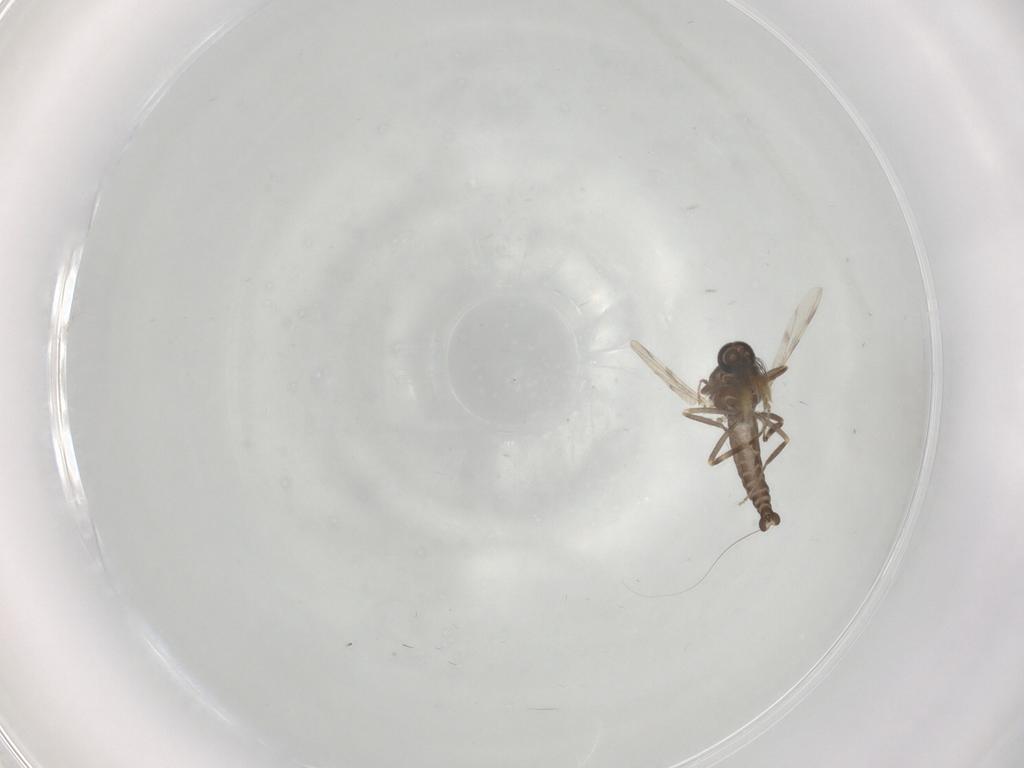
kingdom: Animalia
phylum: Arthropoda
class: Insecta
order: Diptera
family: Ceratopogonidae
